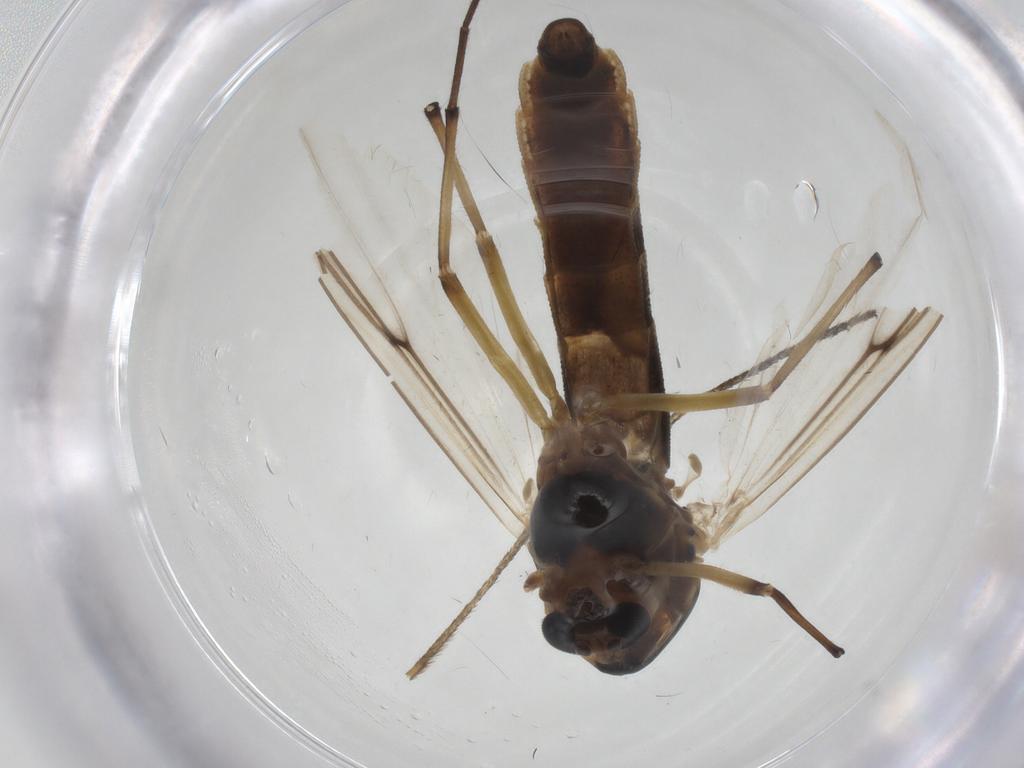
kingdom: Animalia
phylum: Arthropoda
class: Insecta
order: Diptera
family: Chironomidae
